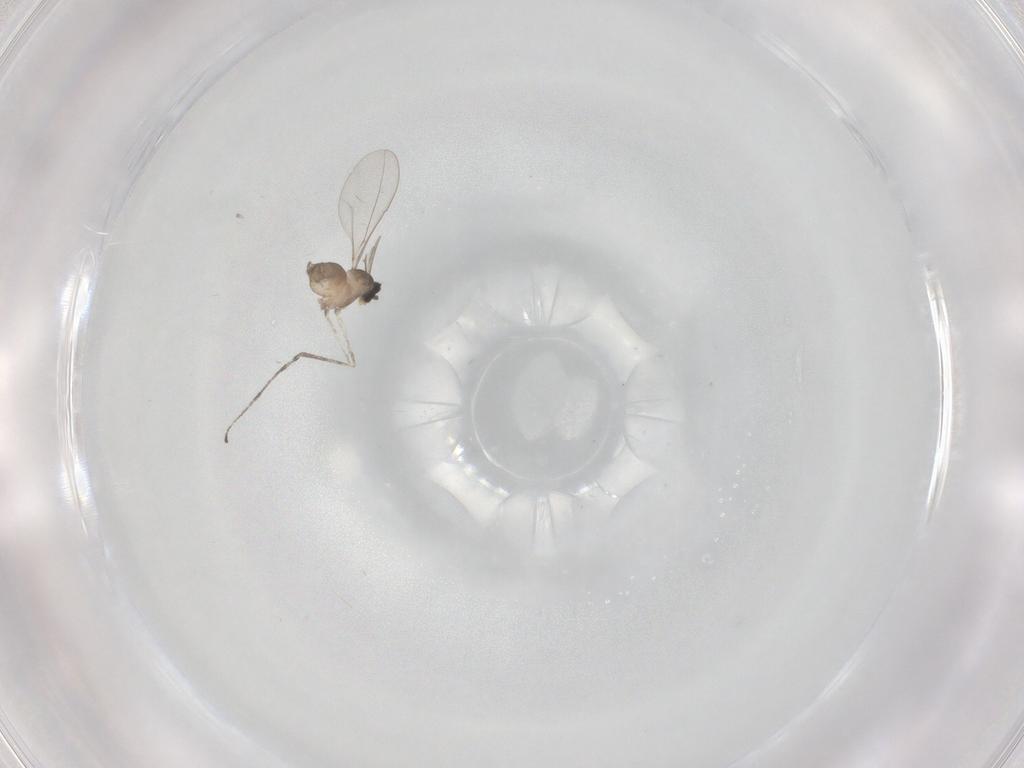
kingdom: Animalia
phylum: Arthropoda
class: Insecta
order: Diptera
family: Cecidomyiidae
